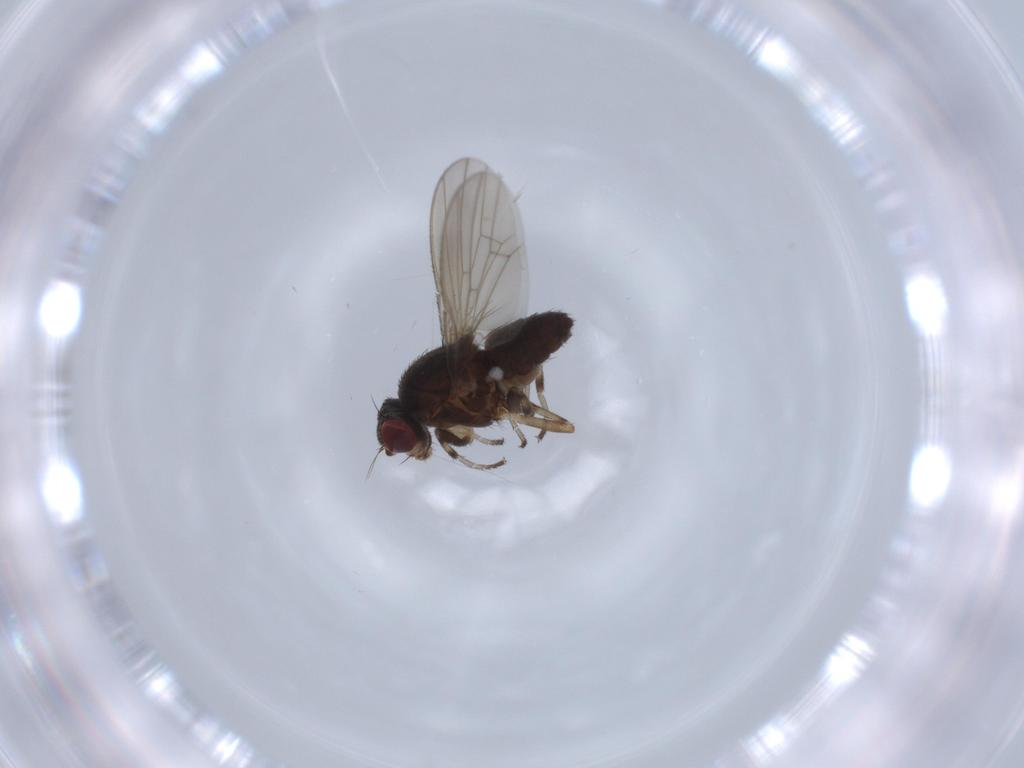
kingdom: Animalia
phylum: Arthropoda
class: Insecta
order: Diptera
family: Heleomyzidae
